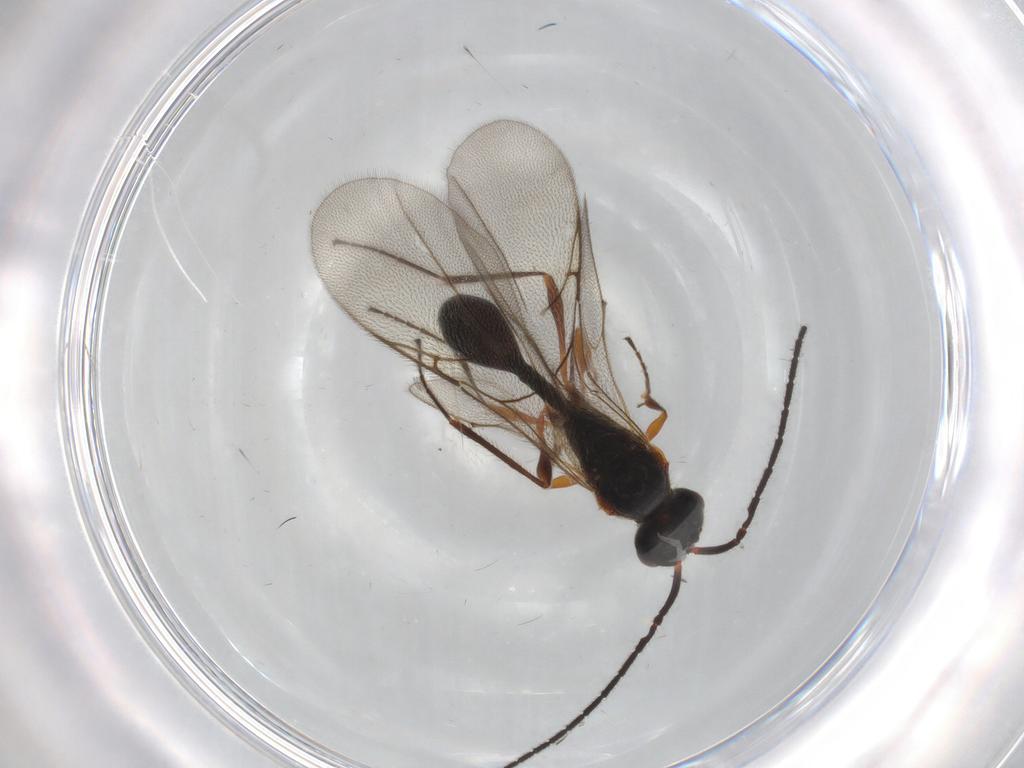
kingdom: Animalia
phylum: Arthropoda
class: Insecta
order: Hymenoptera
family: Diapriidae
